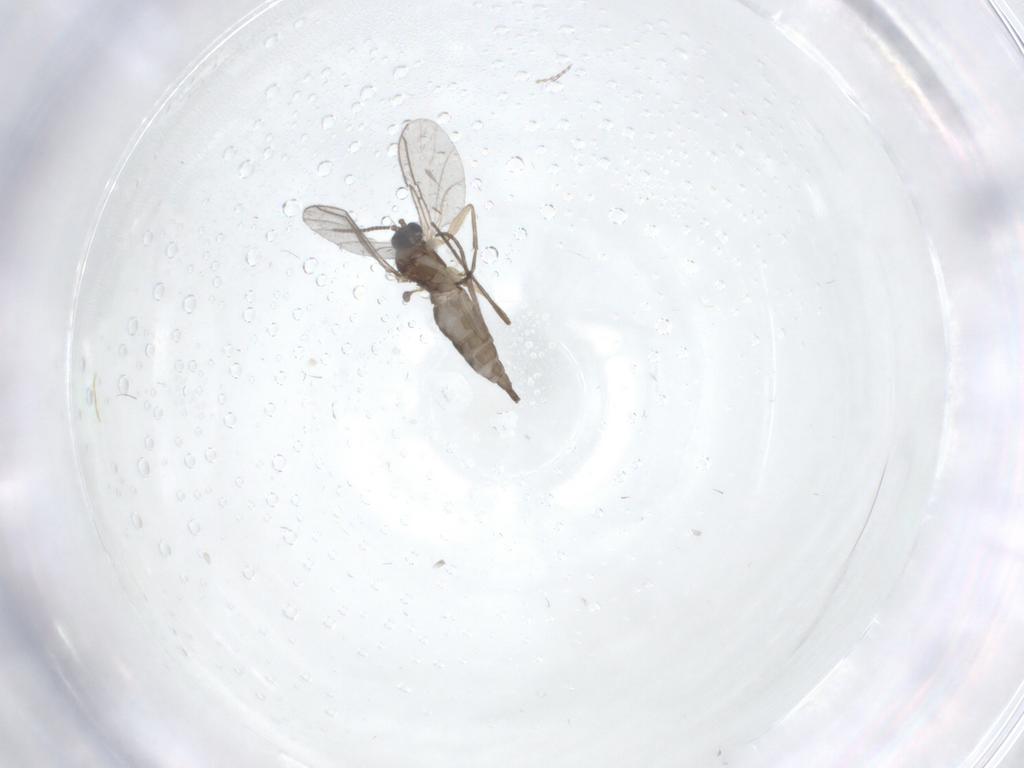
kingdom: Animalia
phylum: Arthropoda
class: Insecta
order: Diptera
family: Cecidomyiidae
